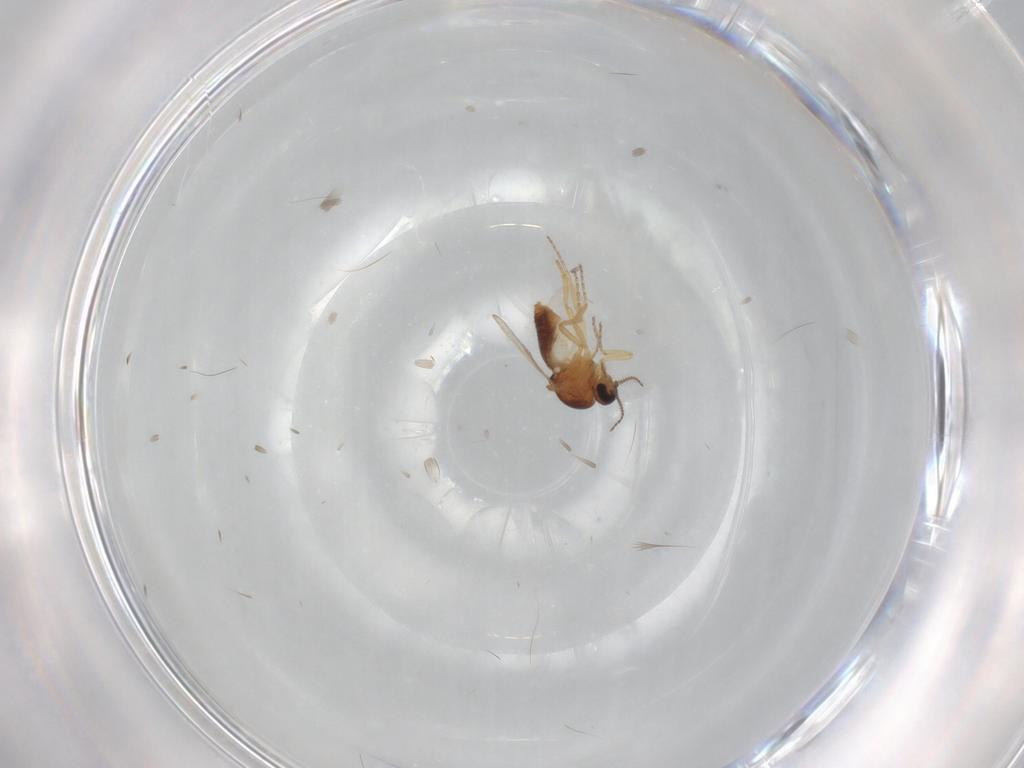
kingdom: Animalia
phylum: Arthropoda
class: Insecta
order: Diptera
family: Ceratopogonidae
